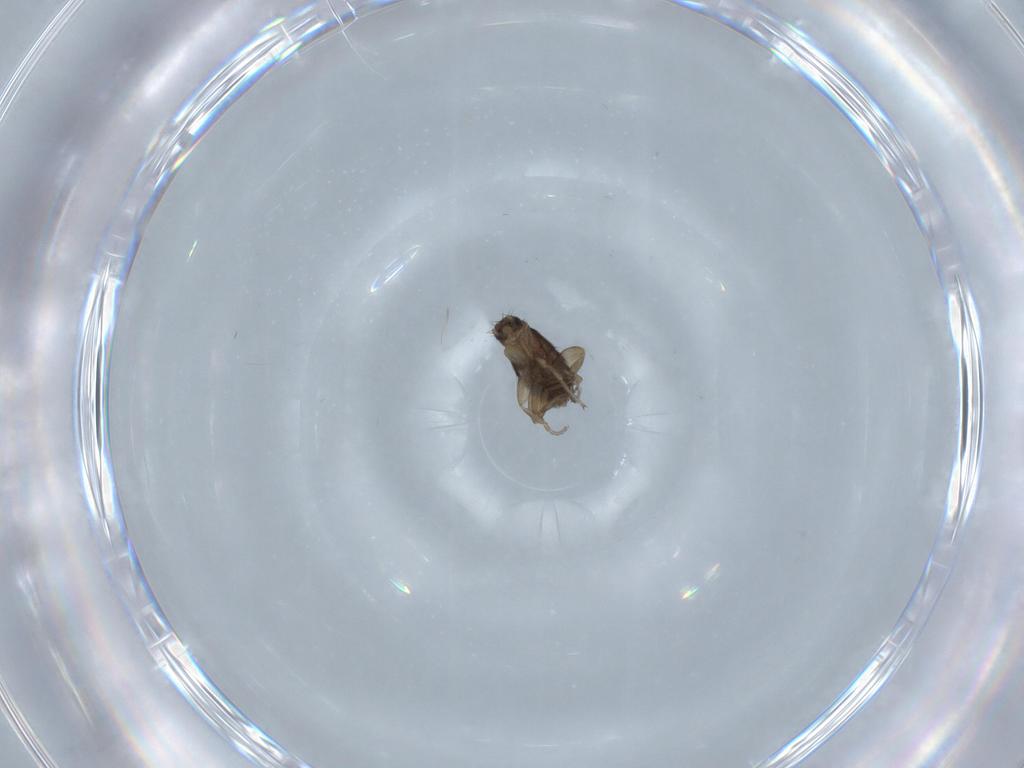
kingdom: Animalia
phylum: Arthropoda
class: Insecta
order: Diptera
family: Phoridae
